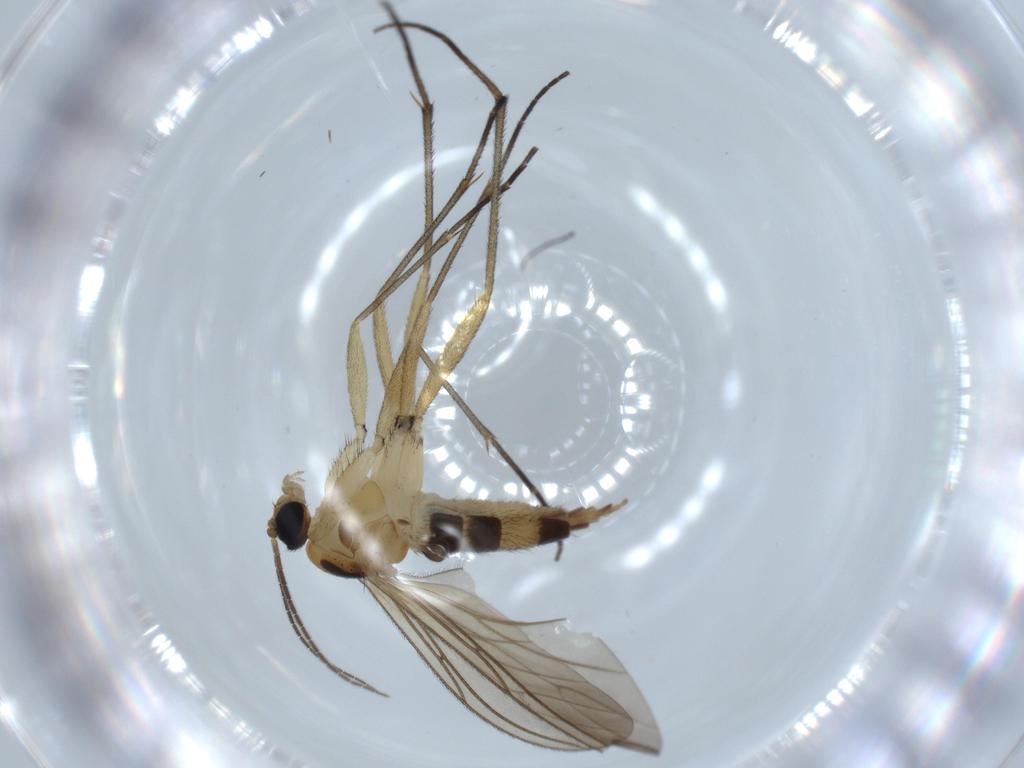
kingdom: Animalia
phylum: Arthropoda
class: Insecta
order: Diptera
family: Sciaridae
